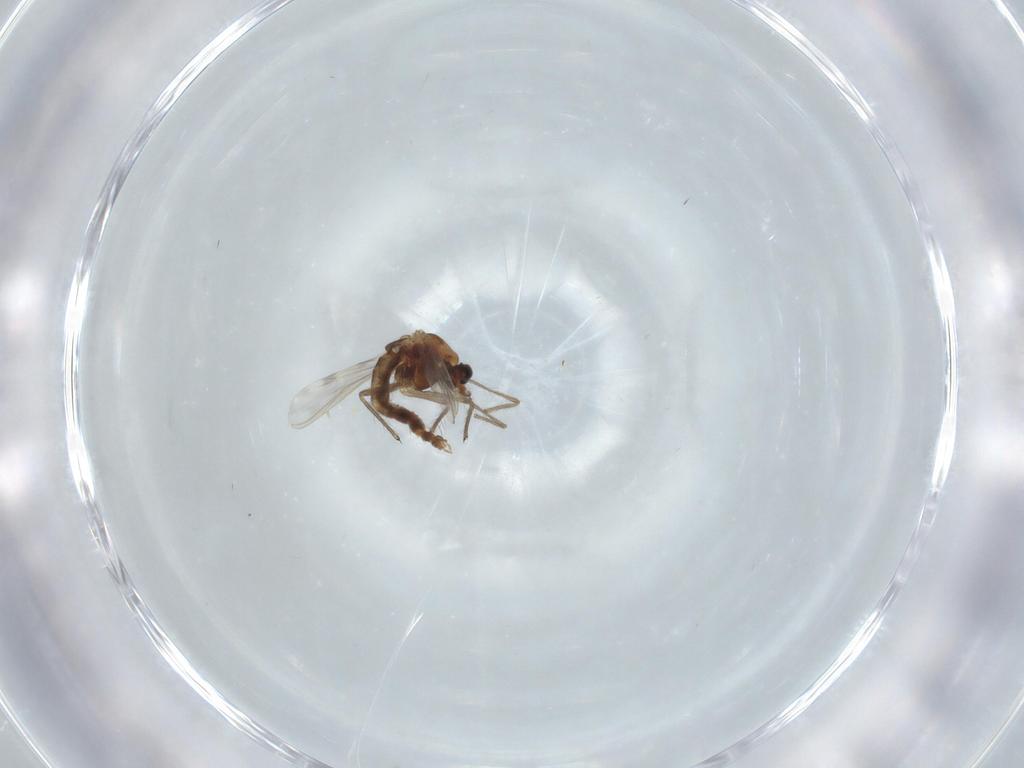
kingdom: Animalia
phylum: Arthropoda
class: Insecta
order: Diptera
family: Chironomidae
